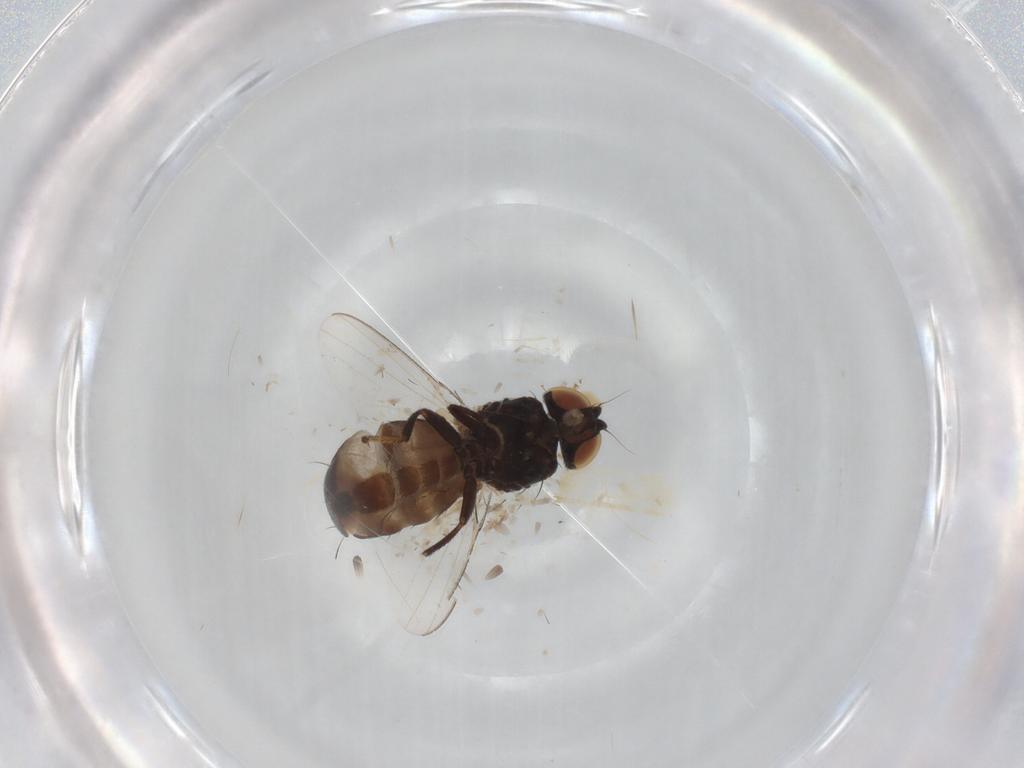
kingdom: Animalia
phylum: Arthropoda
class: Insecta
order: Diptera
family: Milichiidae
